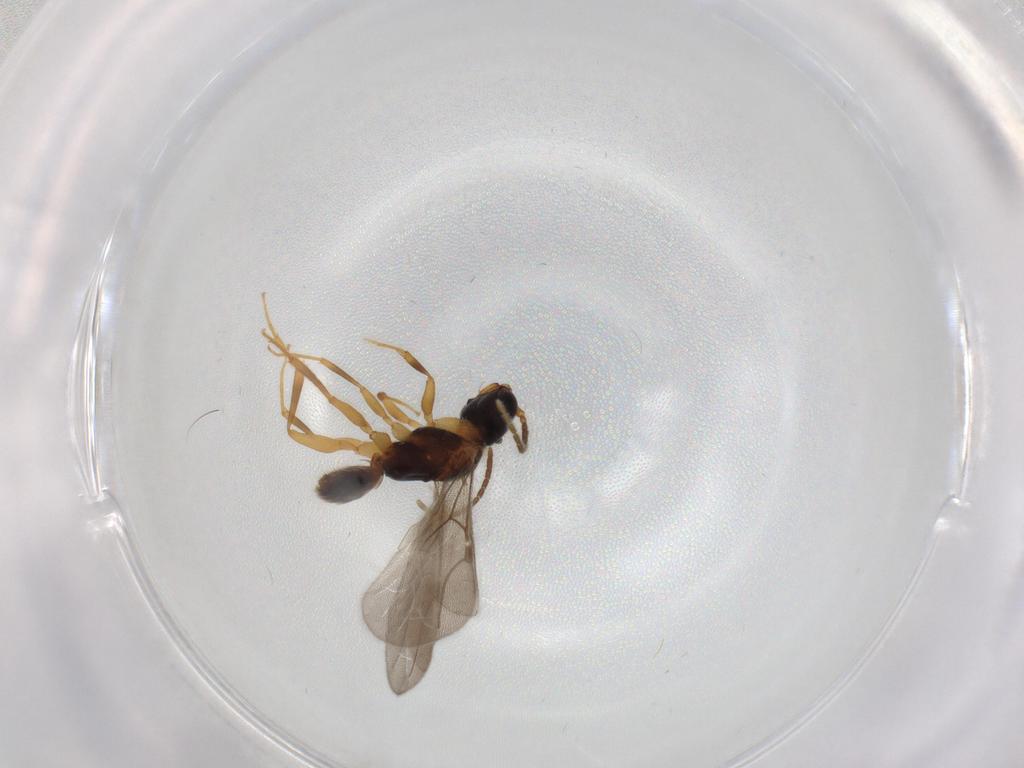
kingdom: Animalia
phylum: Arthropoda
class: Insecta
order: Hymenoptera
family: Bethylidae
